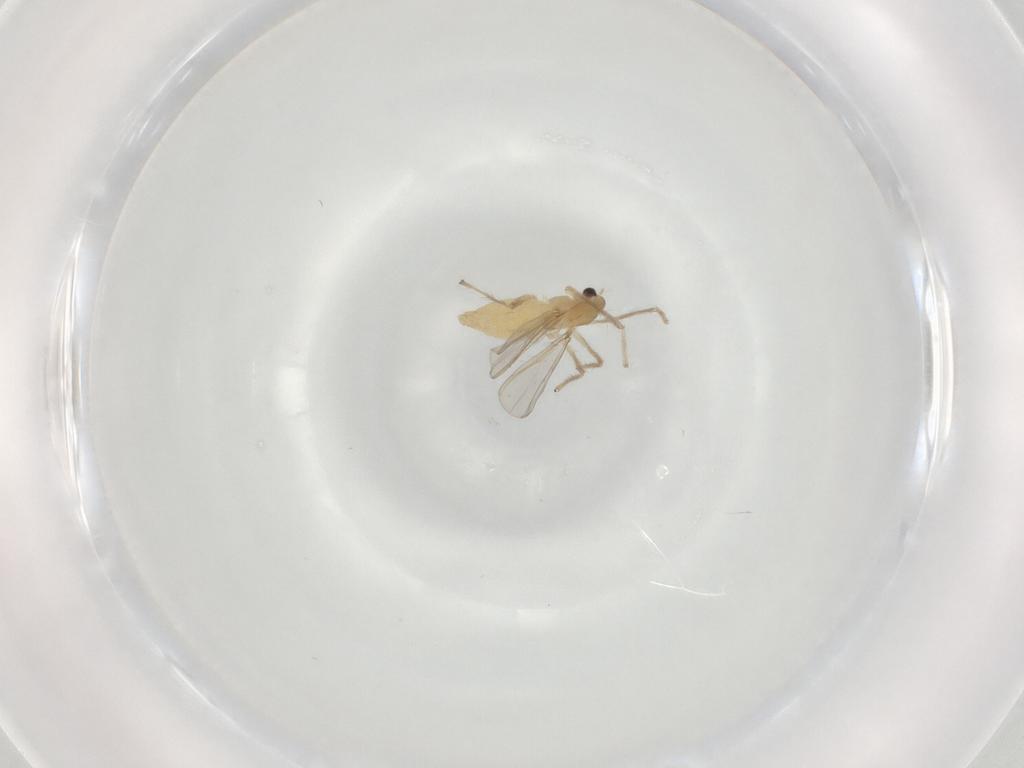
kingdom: Animalia
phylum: Arthropoda
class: Insecta
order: Diptera
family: Chironomidae
